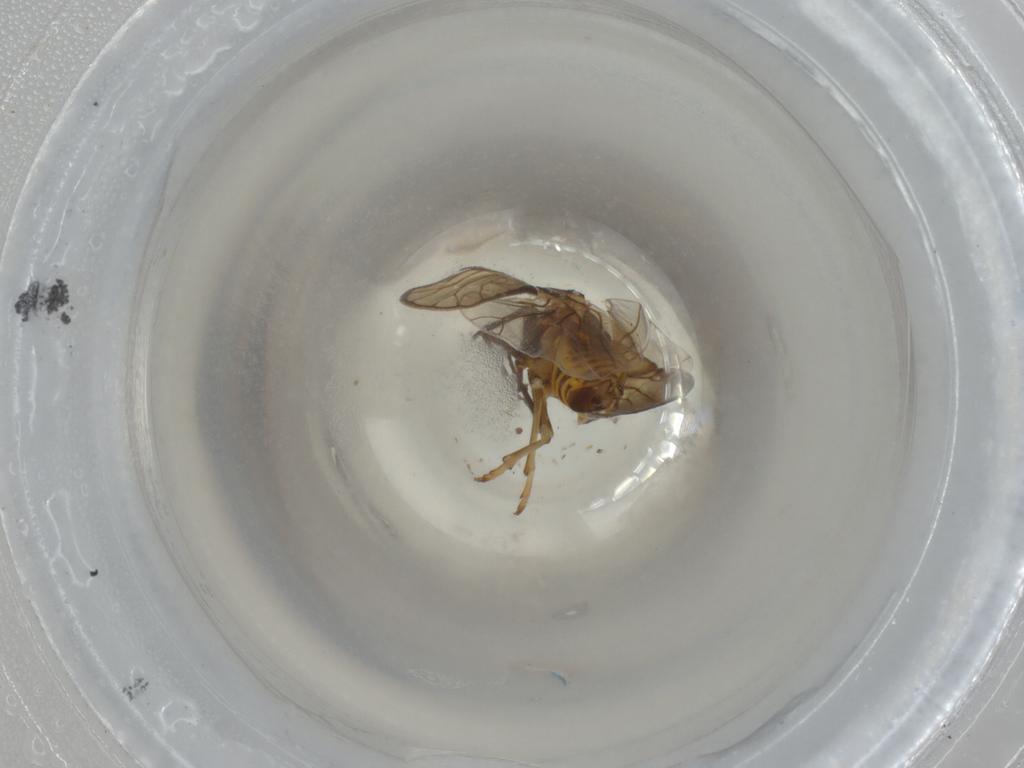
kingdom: Animalia
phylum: Arthropoda
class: Insecta
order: Hemiptera
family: Meenoplidae
